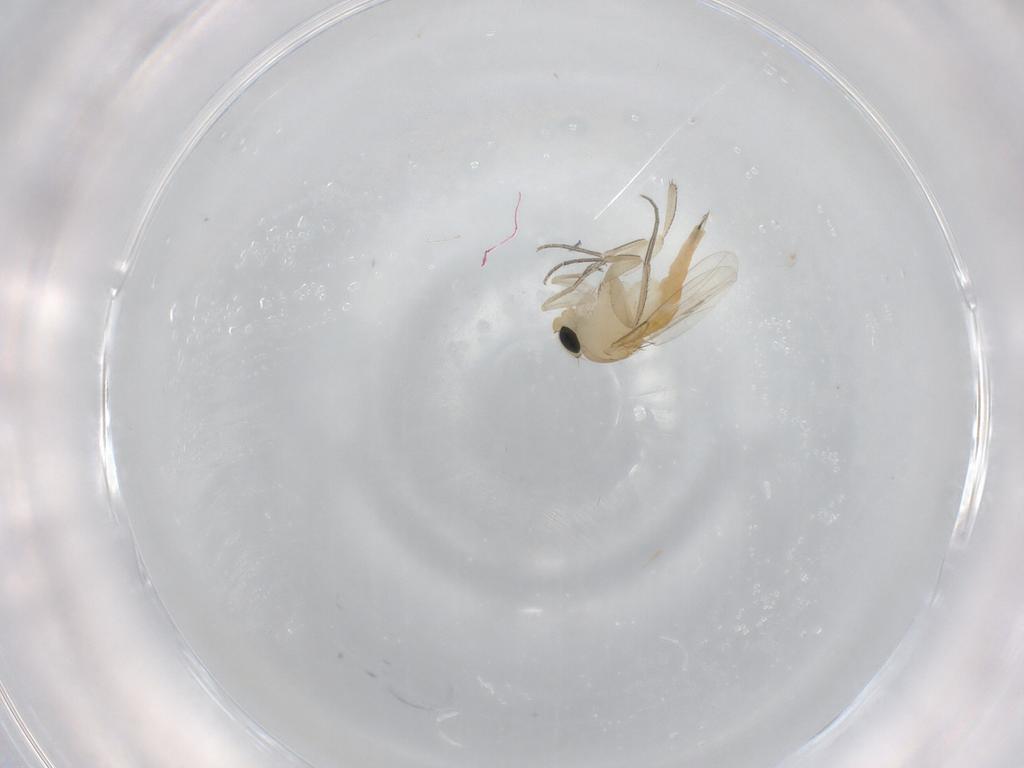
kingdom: Animalia
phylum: Arthropoda
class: Insecta
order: Diptera
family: Phoridae
